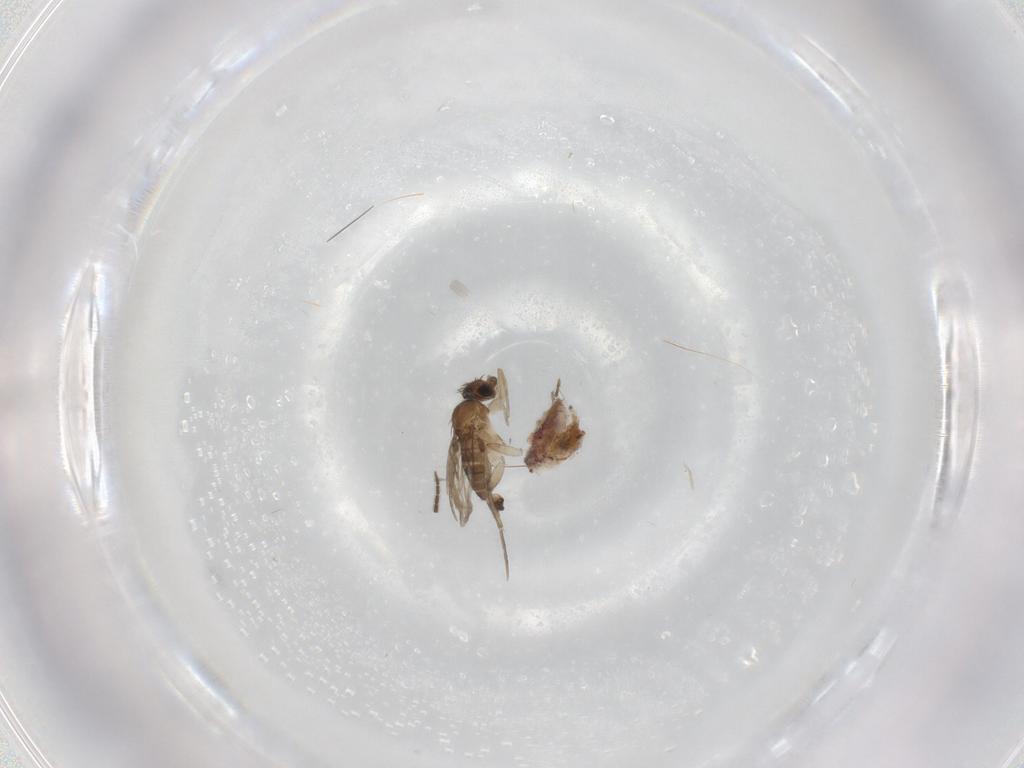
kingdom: Animalia
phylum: Arthropoda
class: Insecta
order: Diptera
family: Phoridae
